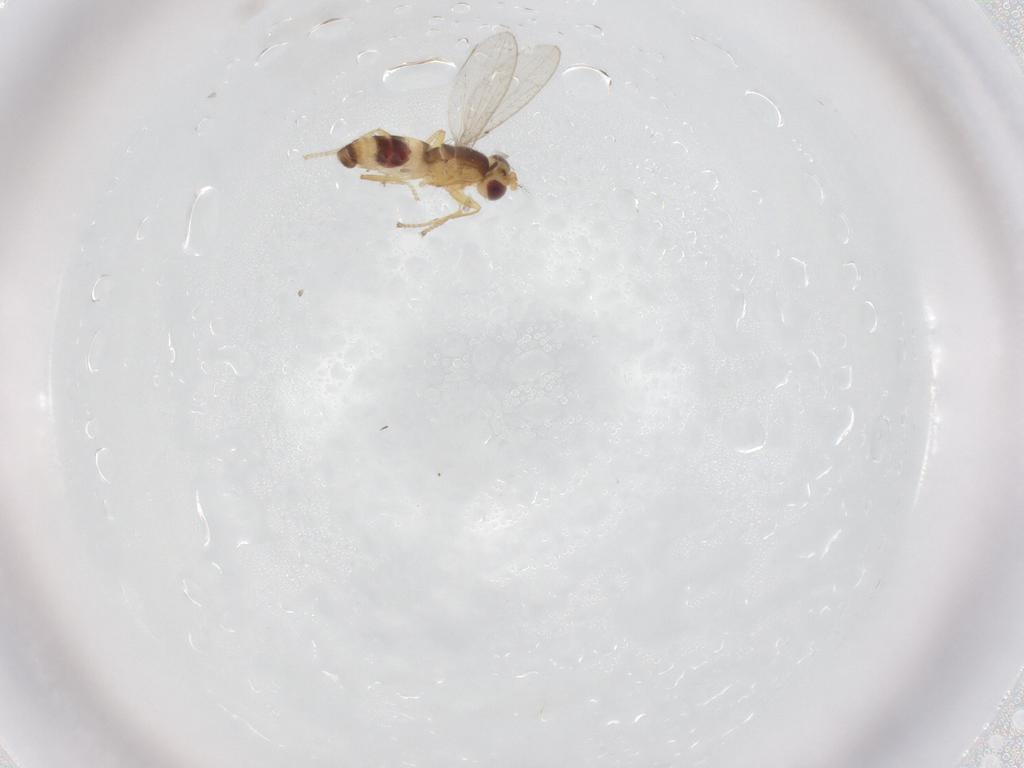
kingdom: Animalia
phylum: Arthropoda
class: Insecta
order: Diptera
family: Periscelididae
